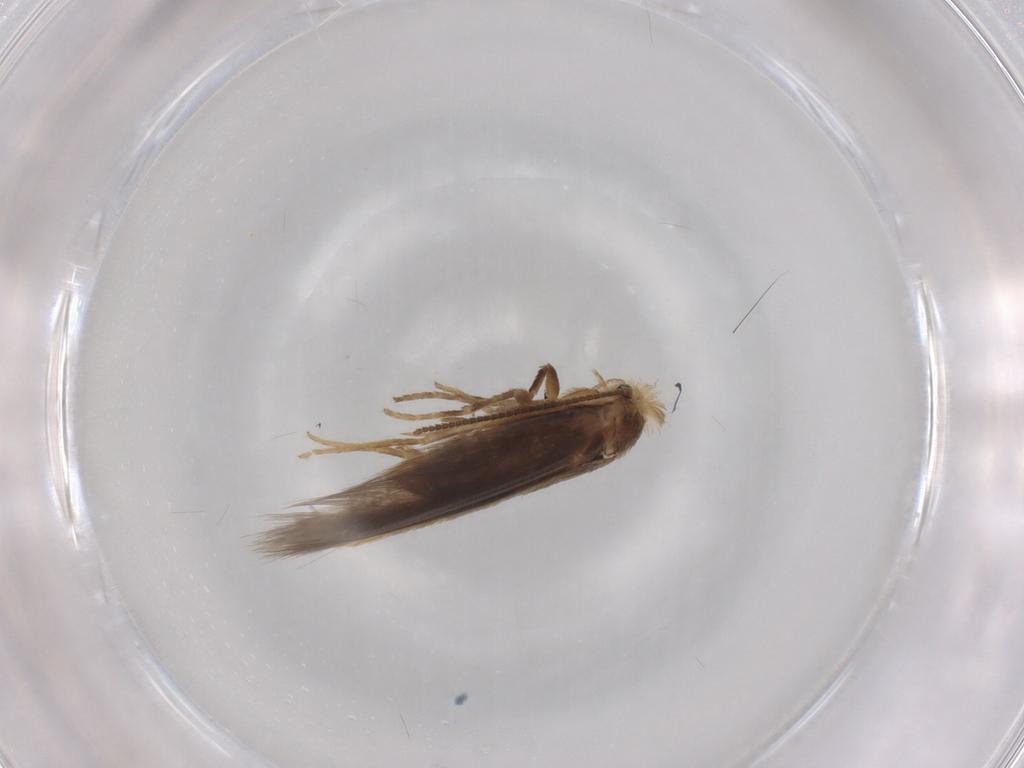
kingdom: Animalia
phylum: Arthropoda
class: Insecta
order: Lepidoptera
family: Nepticulidae
